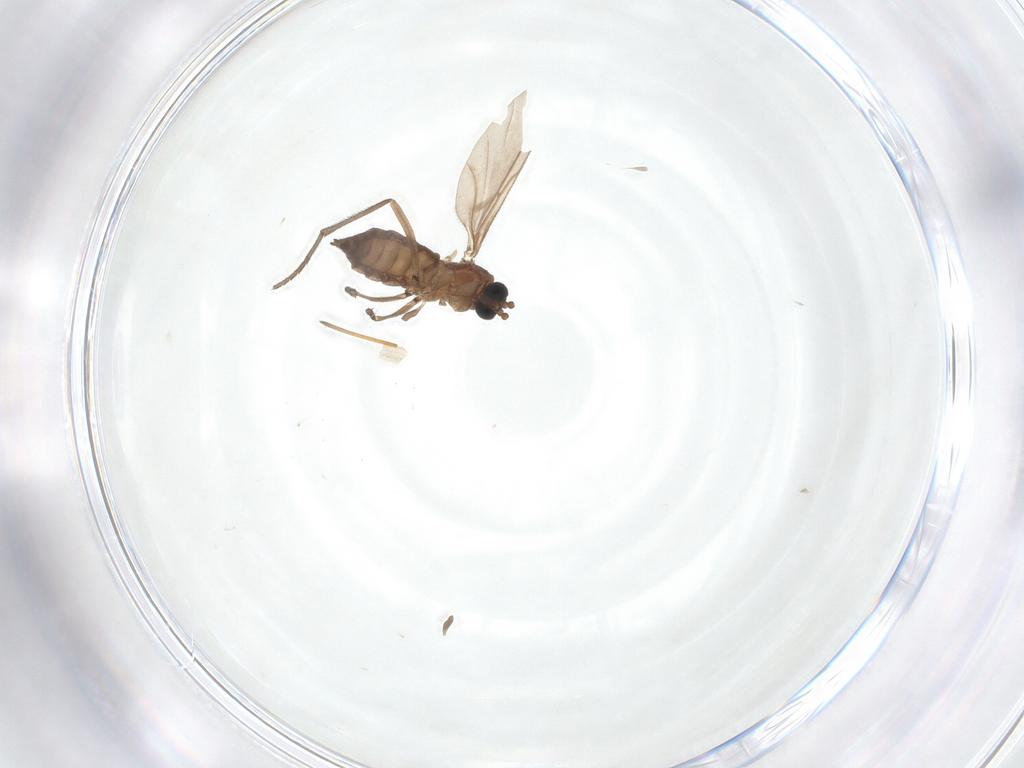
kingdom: Animalia
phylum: Arthropoda
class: Insecta
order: Diptera
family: Sciaridae
